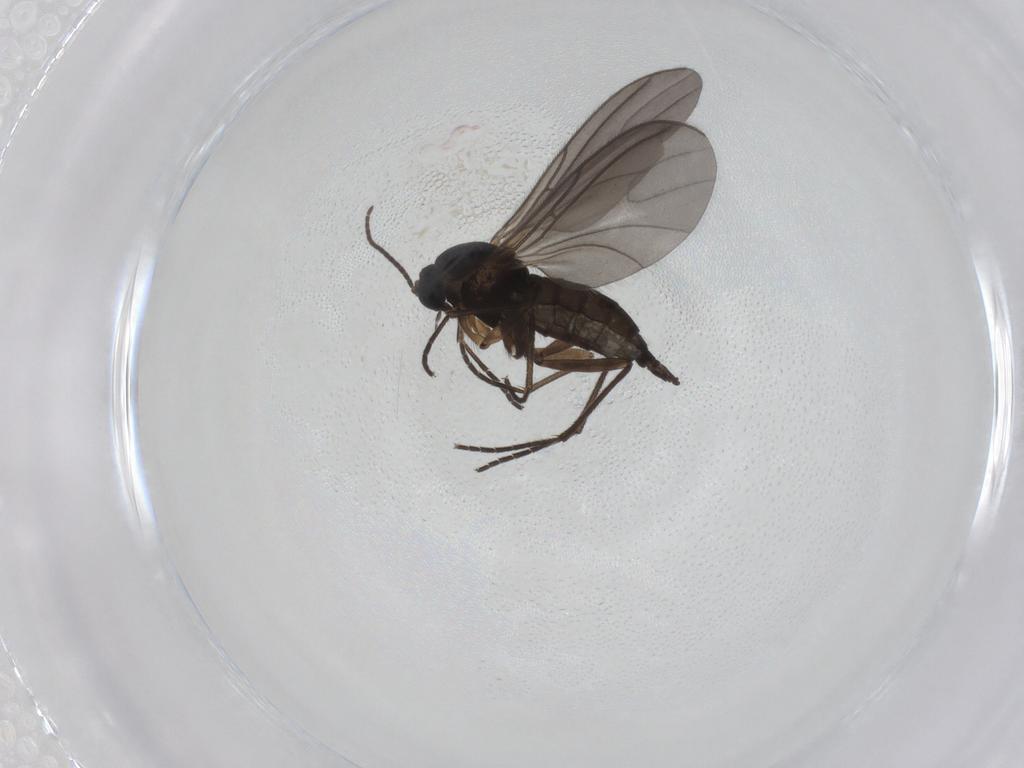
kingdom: Animalia
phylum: Arthropoda
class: Insecta
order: Diptera
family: Sciaridae
